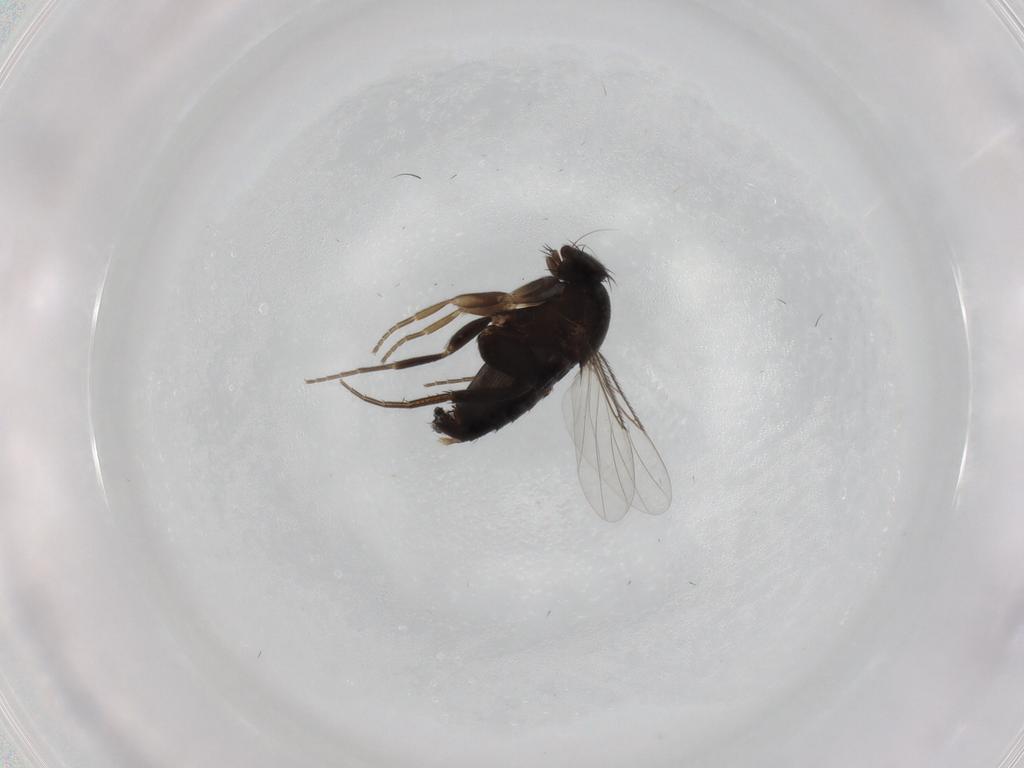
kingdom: Animalia
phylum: Arthropoda
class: Insecta
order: Diptera
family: Phoridae
